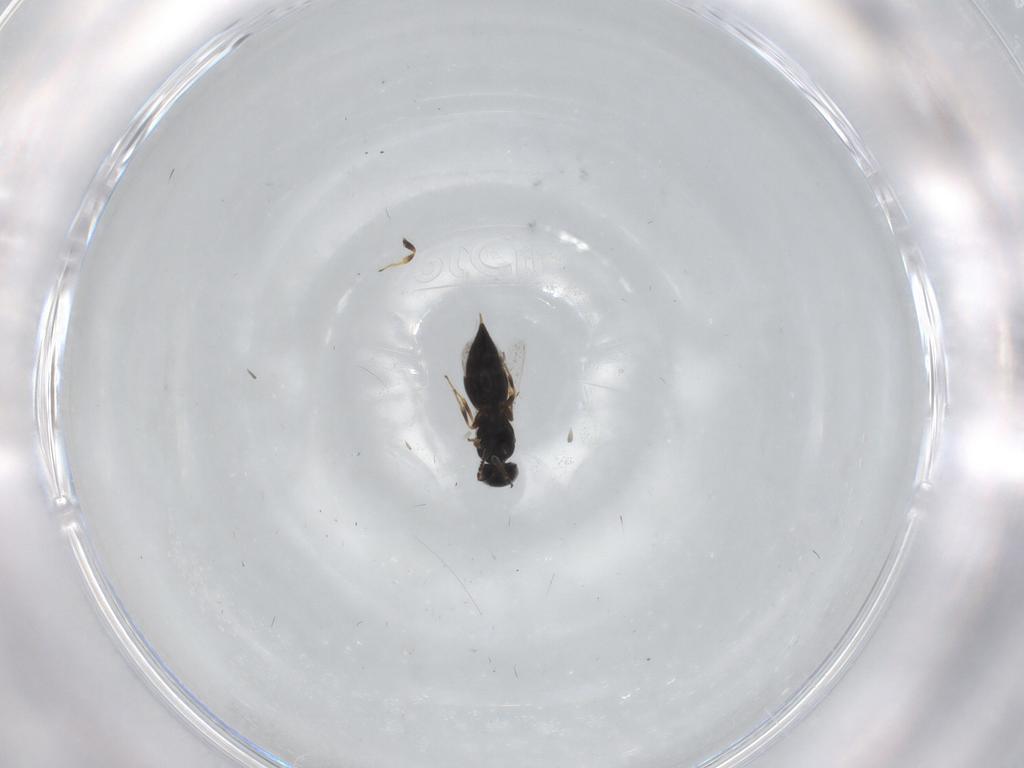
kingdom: Animalia
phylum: Arthropoda
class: Insecta
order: Hymenoptera
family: Scelionidae
